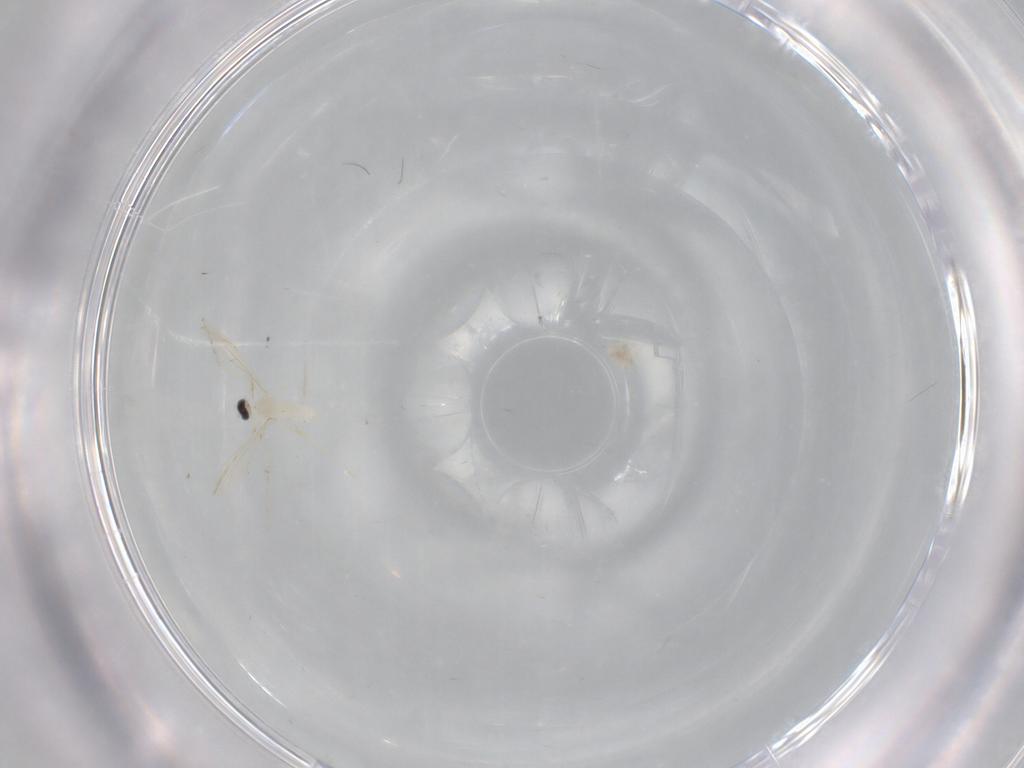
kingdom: Animalia
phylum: Arthropoda
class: Insecta
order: Diptera
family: Cecidomyiidae
